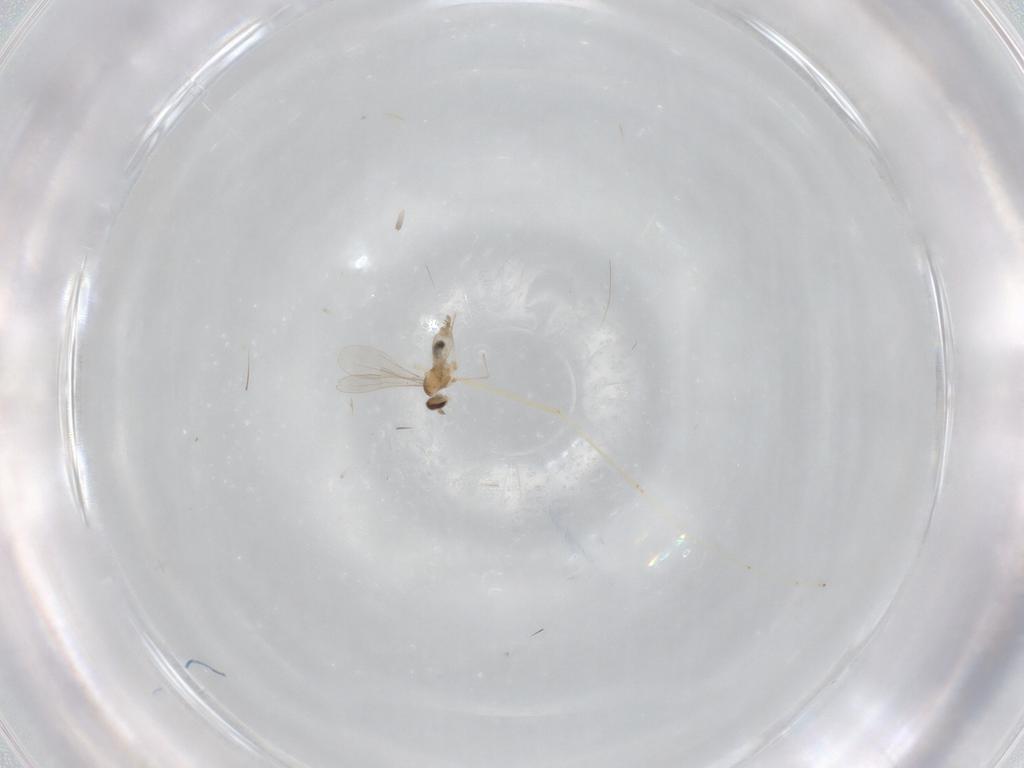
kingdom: Animalia
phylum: Arthropoda
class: Insecta
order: Diptera
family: Cecidomyiidae
